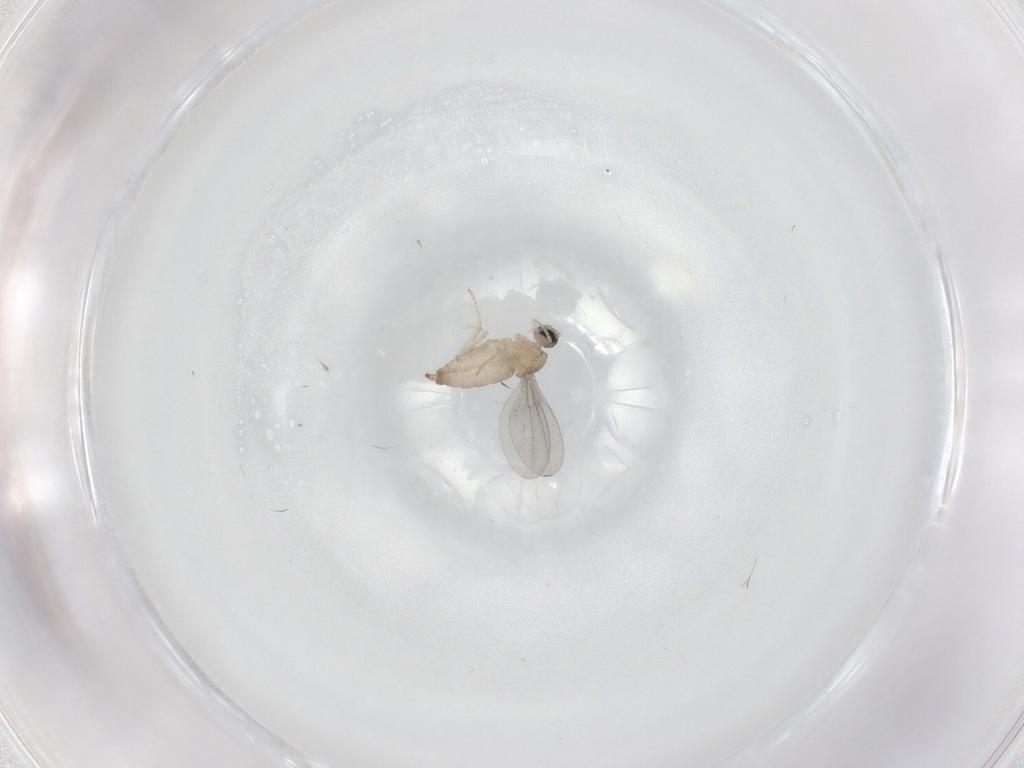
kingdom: Animalia
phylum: Arthropoda
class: Insecta
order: Diptera
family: Cecidomyiidae
